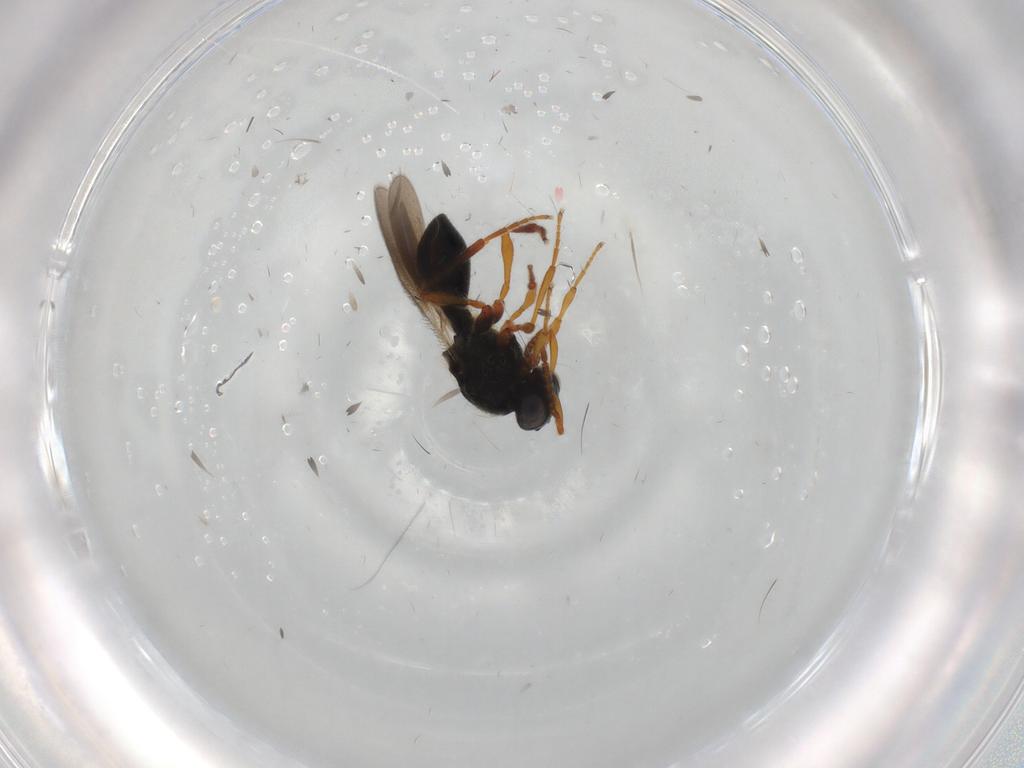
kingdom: Animalia
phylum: Arthropoda
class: Insecta
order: Hymenoptera
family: Platygastridae
